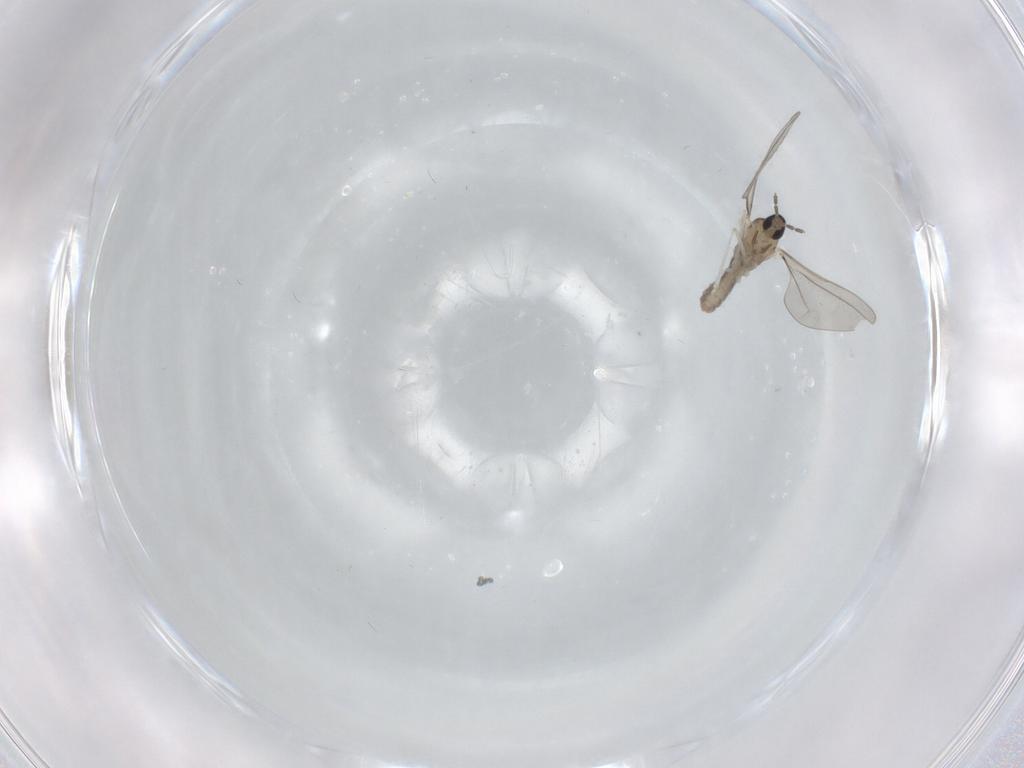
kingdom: Animalia
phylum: Arthropoda
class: Insecta
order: Diptera
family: Cecidomyiidae
